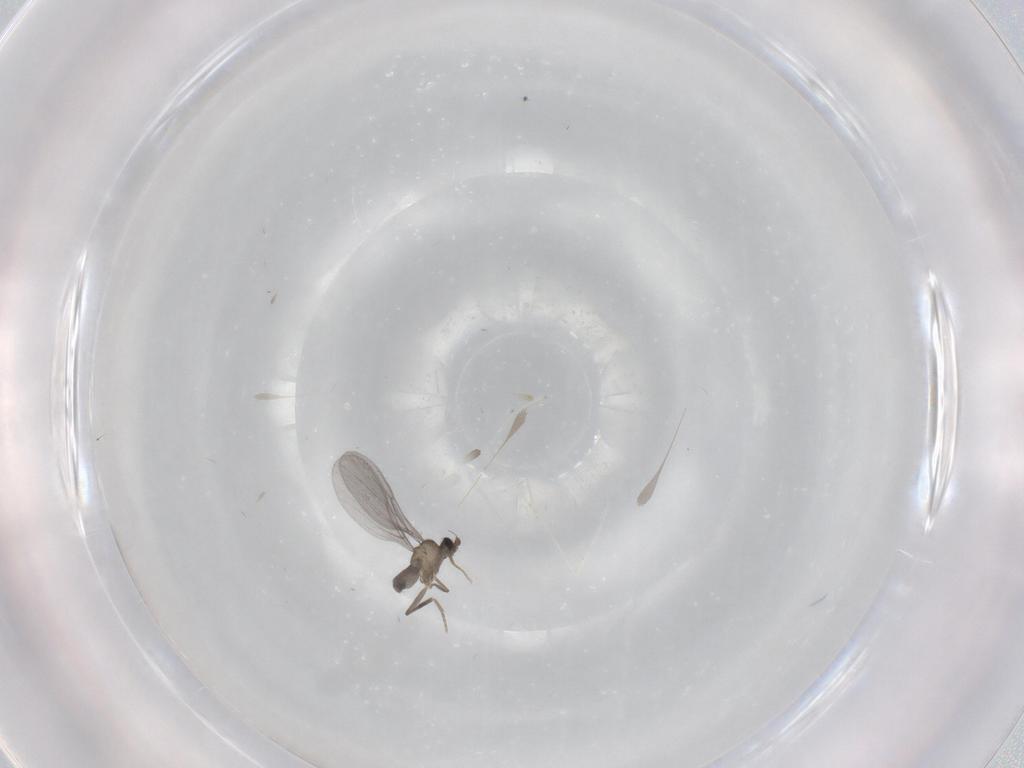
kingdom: Animalia
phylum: Arthropoda
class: Insecta
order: Diptera
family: Phoridae
